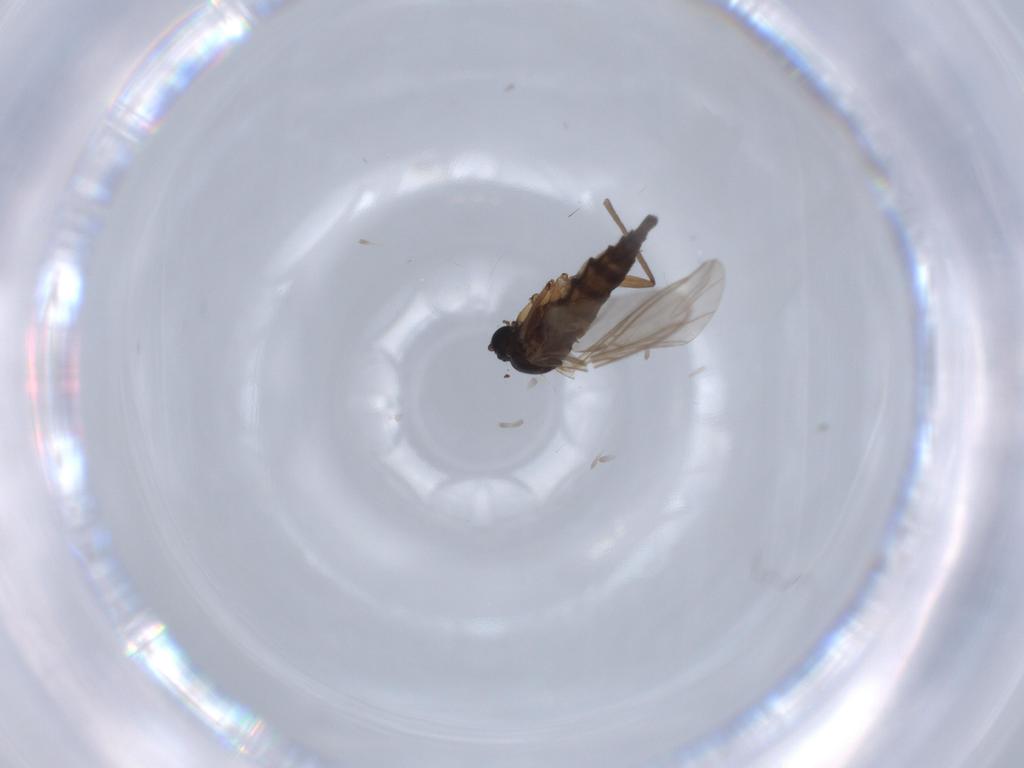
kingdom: Animalia
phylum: Arthropoda
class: Insecta
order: Diptera
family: Sciaridae
